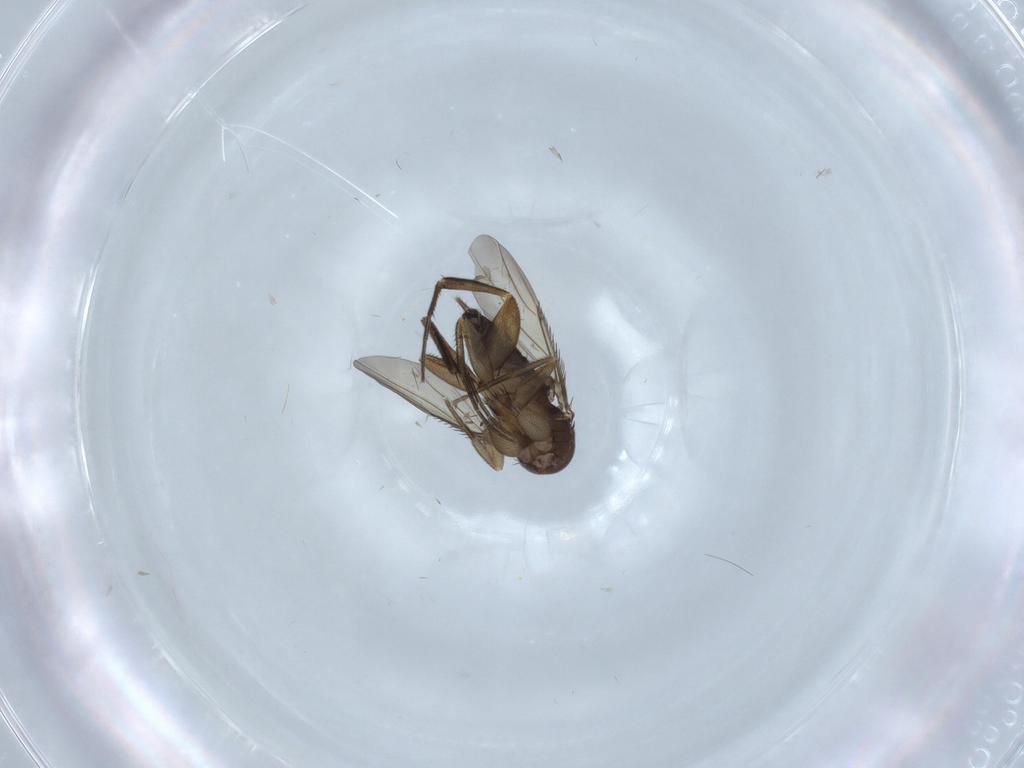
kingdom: Animalia
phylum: Arthropoda
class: Insecta
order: Diptera
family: Phoridae
